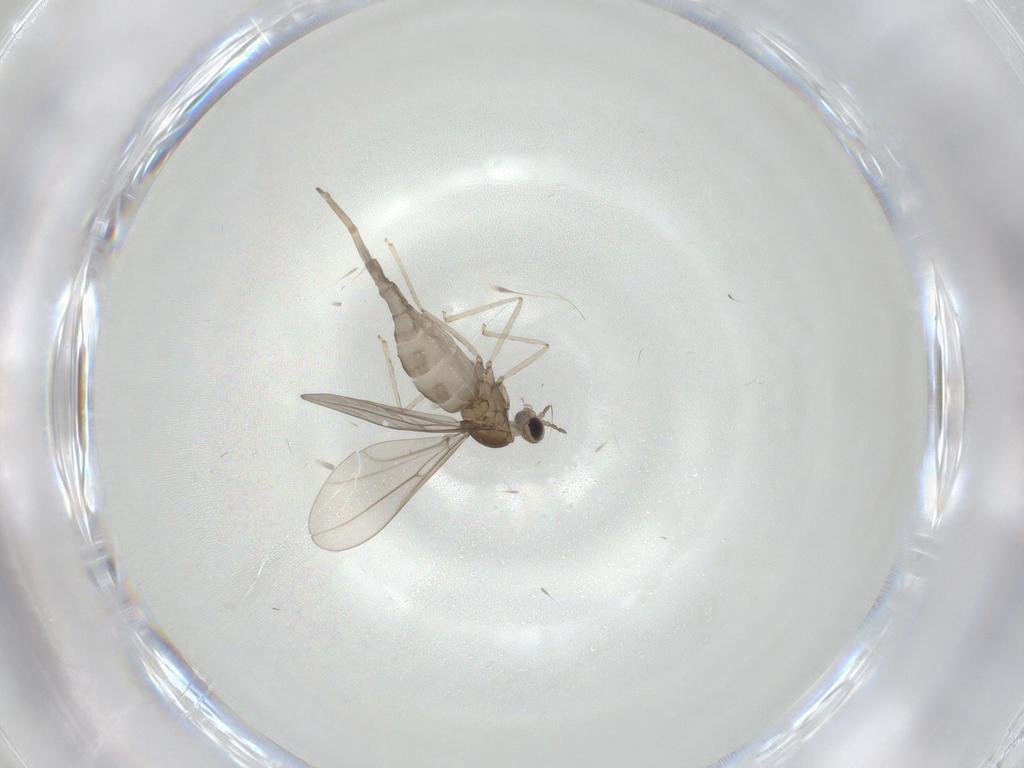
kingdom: Animalia
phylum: Arthropoda
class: Insecta
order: Diptera
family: Cecidomyiidae
